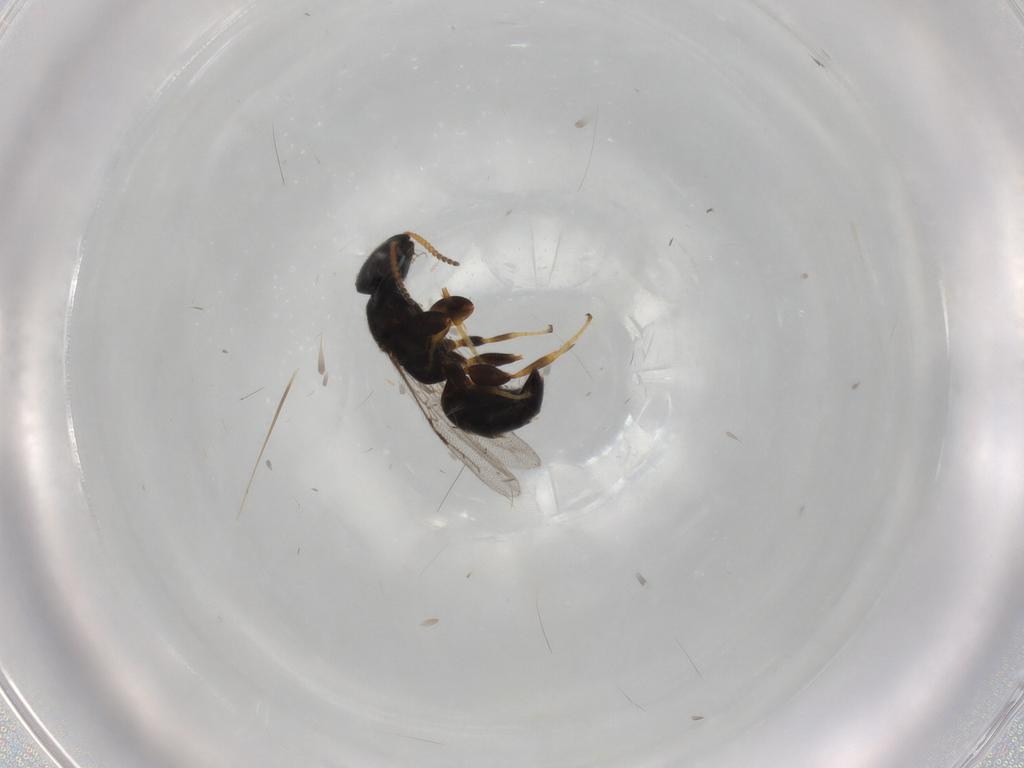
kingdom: Animalia
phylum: Arthropoda
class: Insecta
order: Hymenoptera
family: Bethylidae
